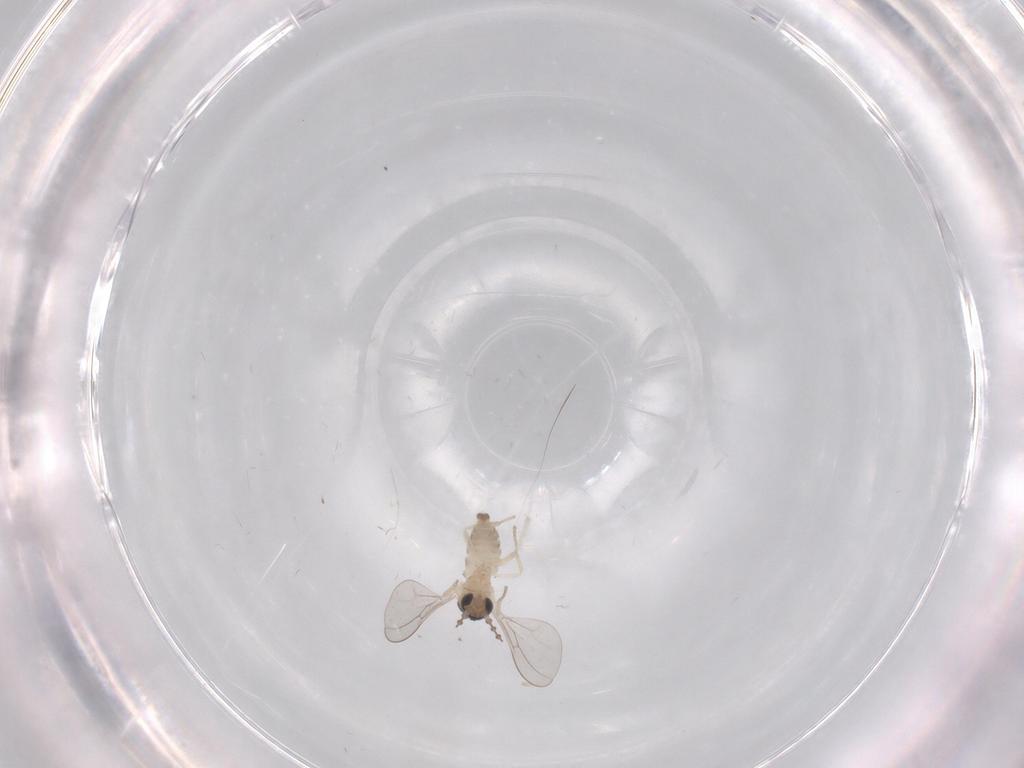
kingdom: Animalia
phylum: Arthropoda
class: Insecta
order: Diptera
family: Cecidomyiidae
